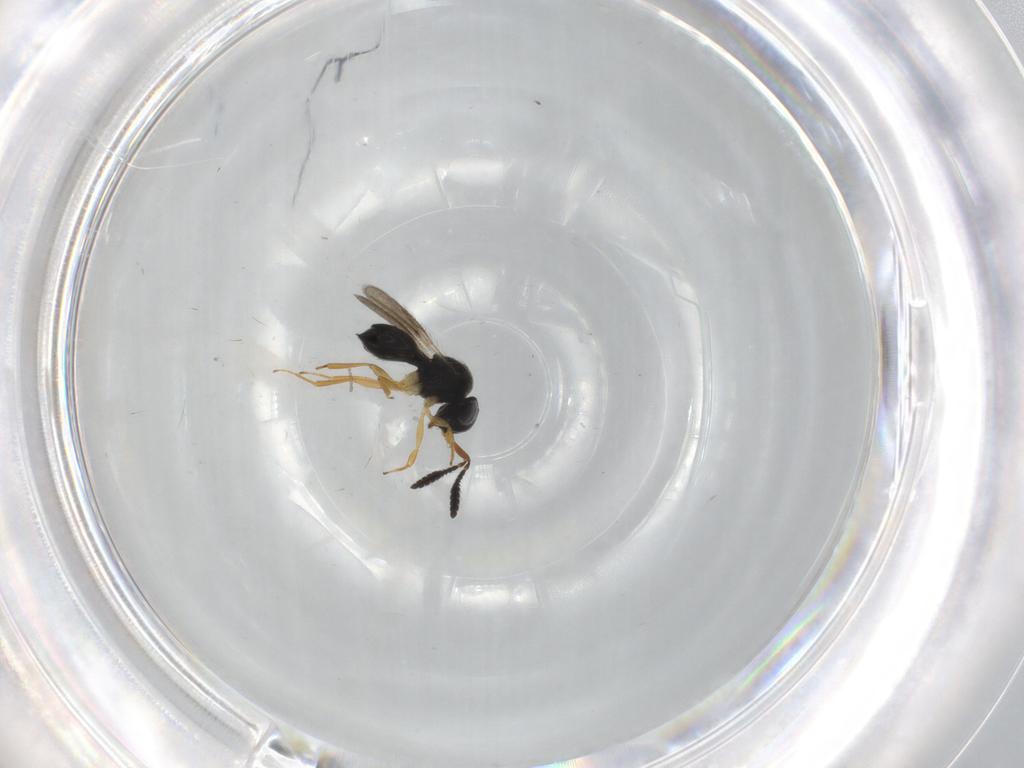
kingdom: Animalia
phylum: Arthropoda
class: Insecta
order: Hymenoptera
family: Scelionidae
